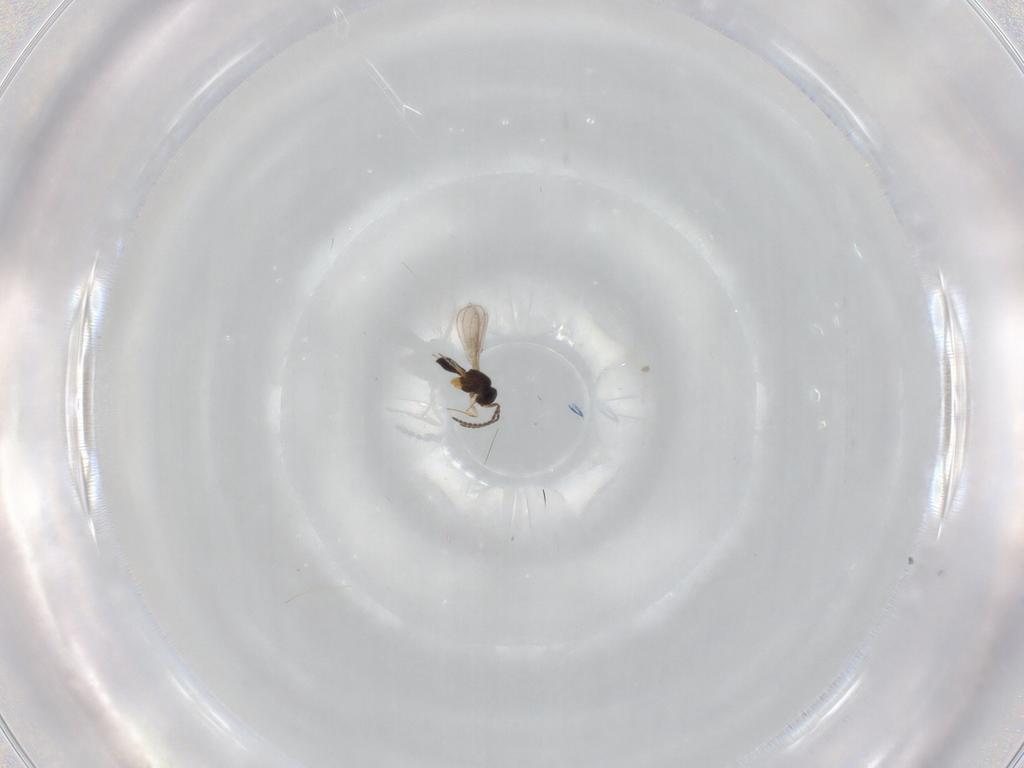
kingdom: Animalia
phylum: Arthropoda
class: Insecta
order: Hymenoptera
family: Scelionidae
